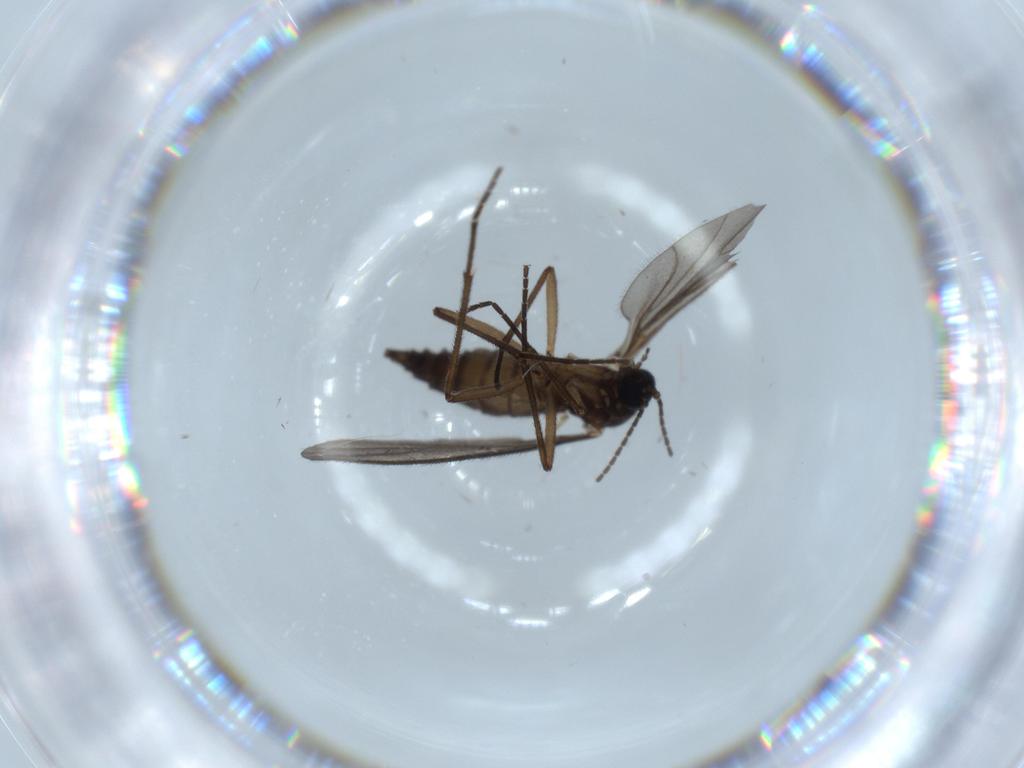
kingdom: Animalia
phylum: Arthropoda
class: Insecta
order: Diptera
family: Sciaridae
